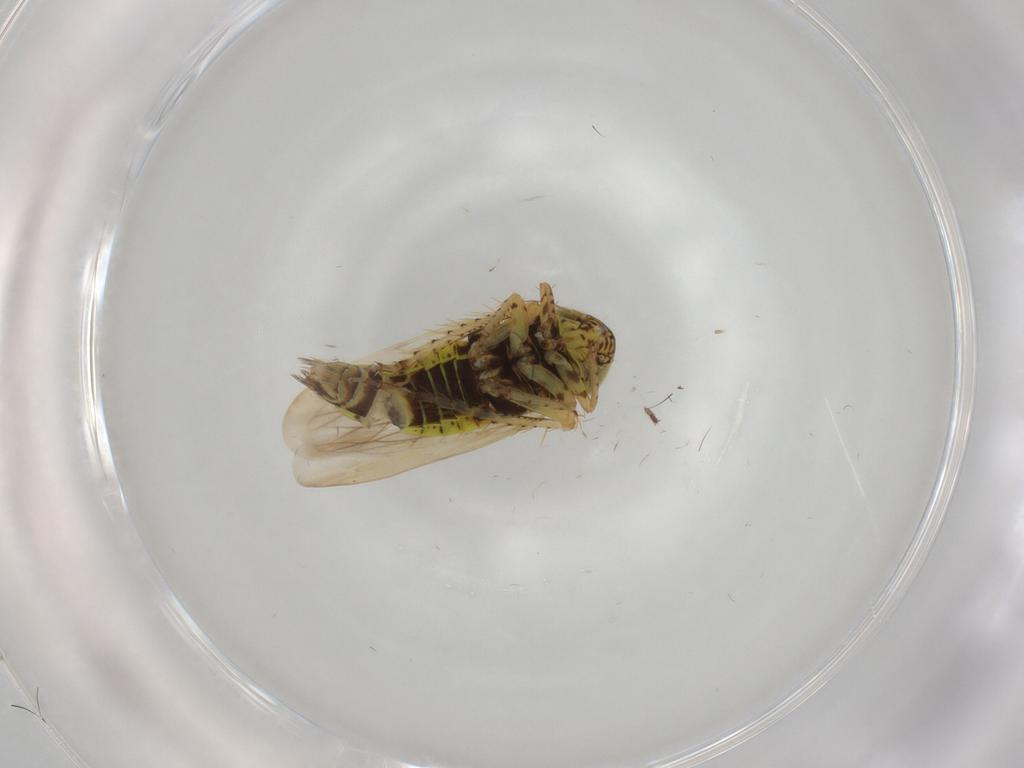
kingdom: Animalia
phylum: Arthropoda
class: Insecta
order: Hemiptera
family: Cicadellidae
